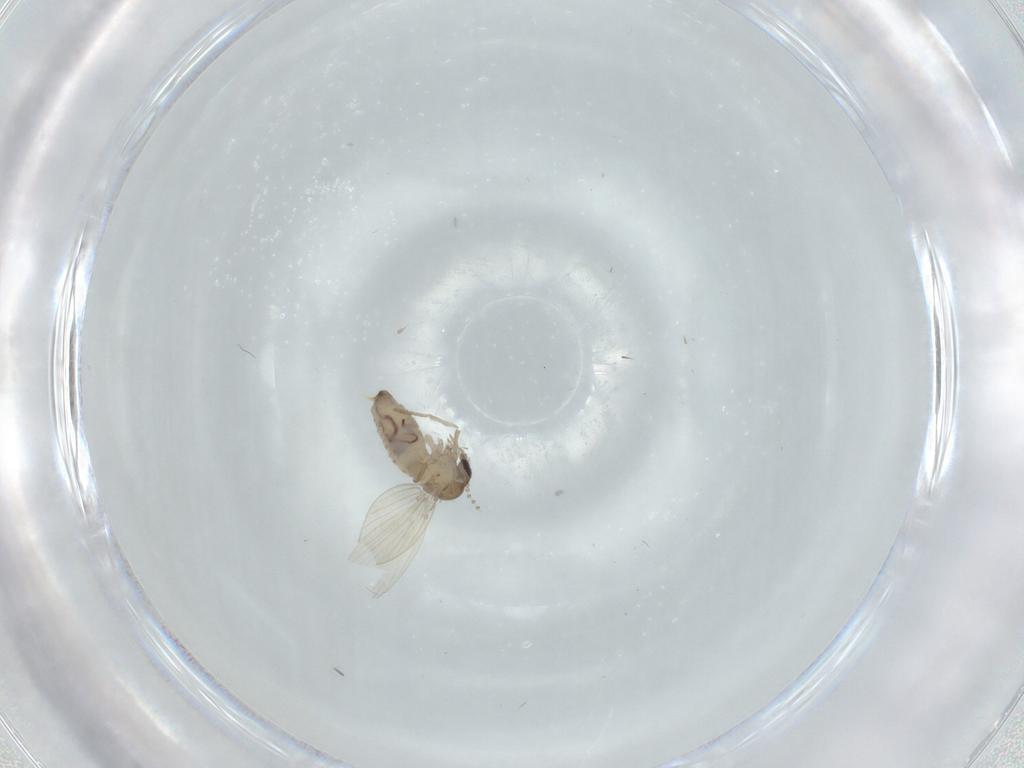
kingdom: Animalia
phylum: Arthropoda
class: Insecta
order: Diptera
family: Psychodidae
